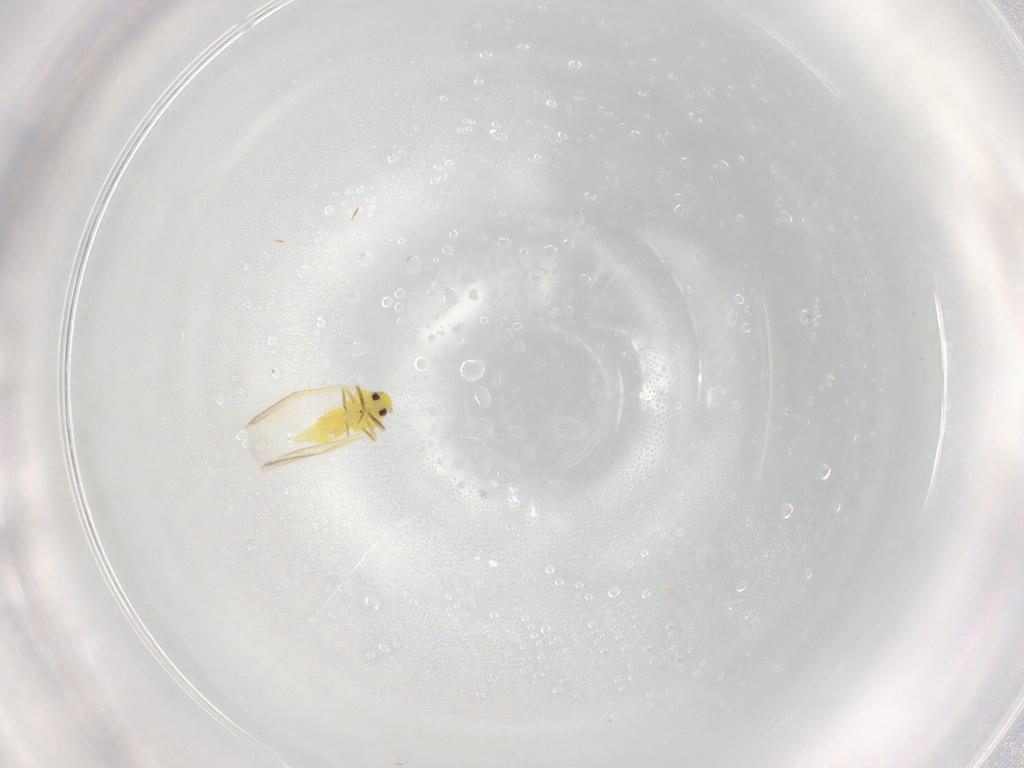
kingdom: Animalia
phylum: Arthropoda
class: Insecta
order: Hemiptera
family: Aleyrodidae
